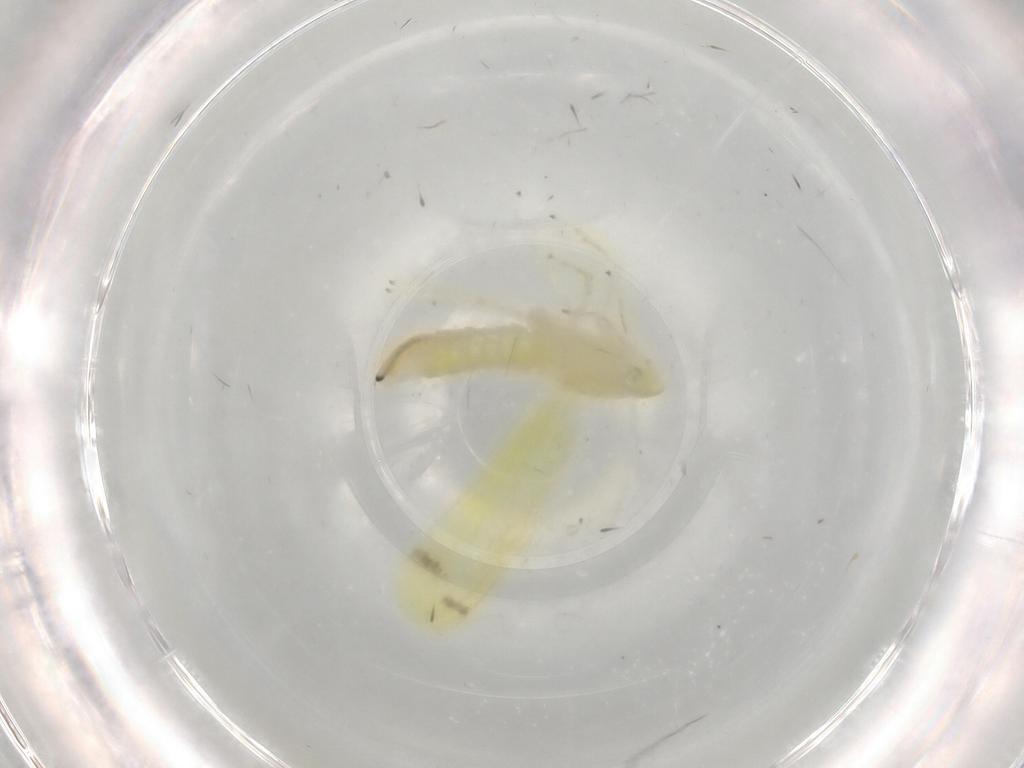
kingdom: Animalia
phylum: Arthropoda
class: Insecta
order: Hemiptera
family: Cicadellidae
